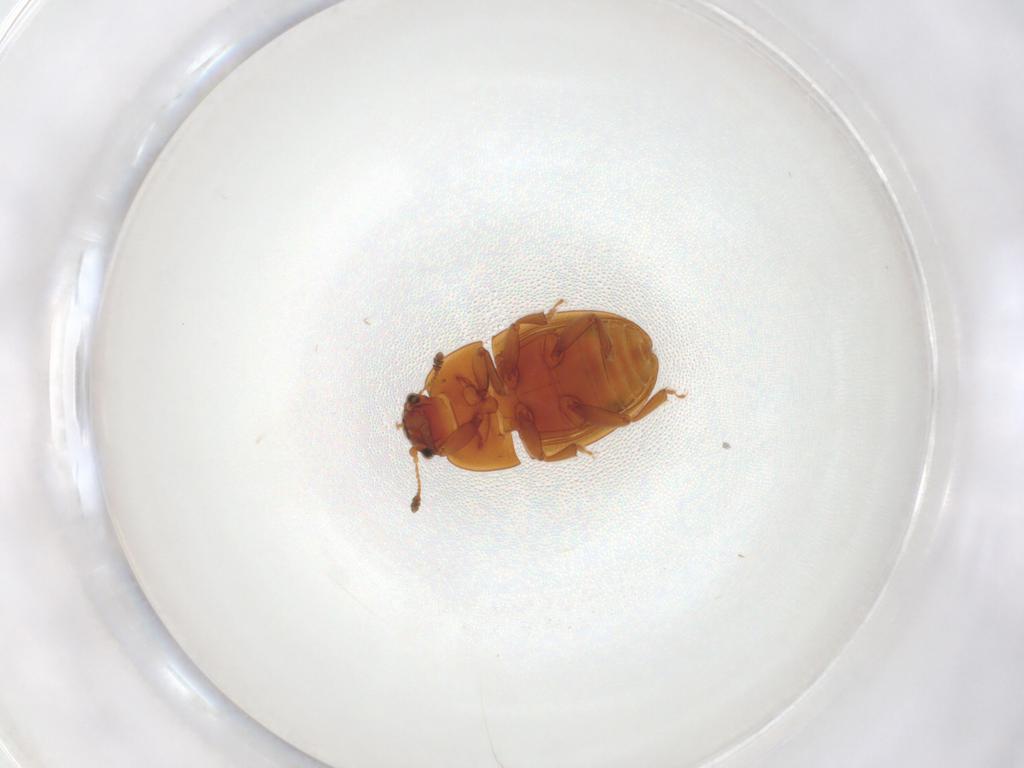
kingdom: Animalia
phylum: Arthropoda
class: Insecta
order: Coleoptera
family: Nitidulidae
